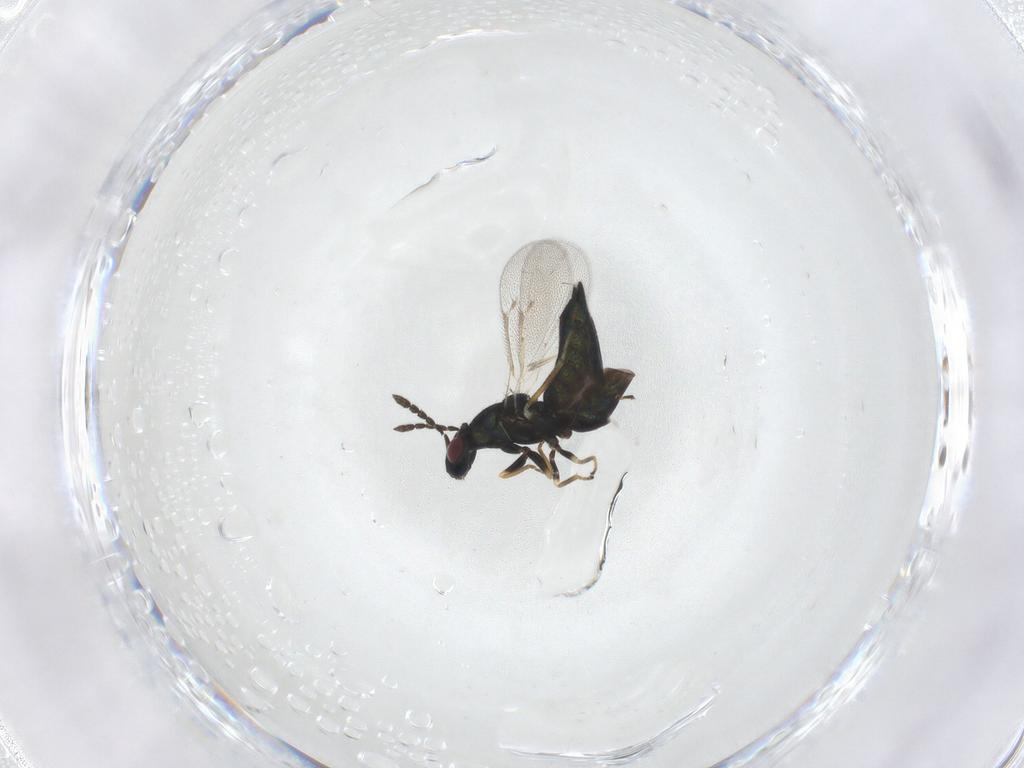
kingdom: Animalia
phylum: Arthropoda
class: Insecta
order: Hymenoptera
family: Eulophidae
